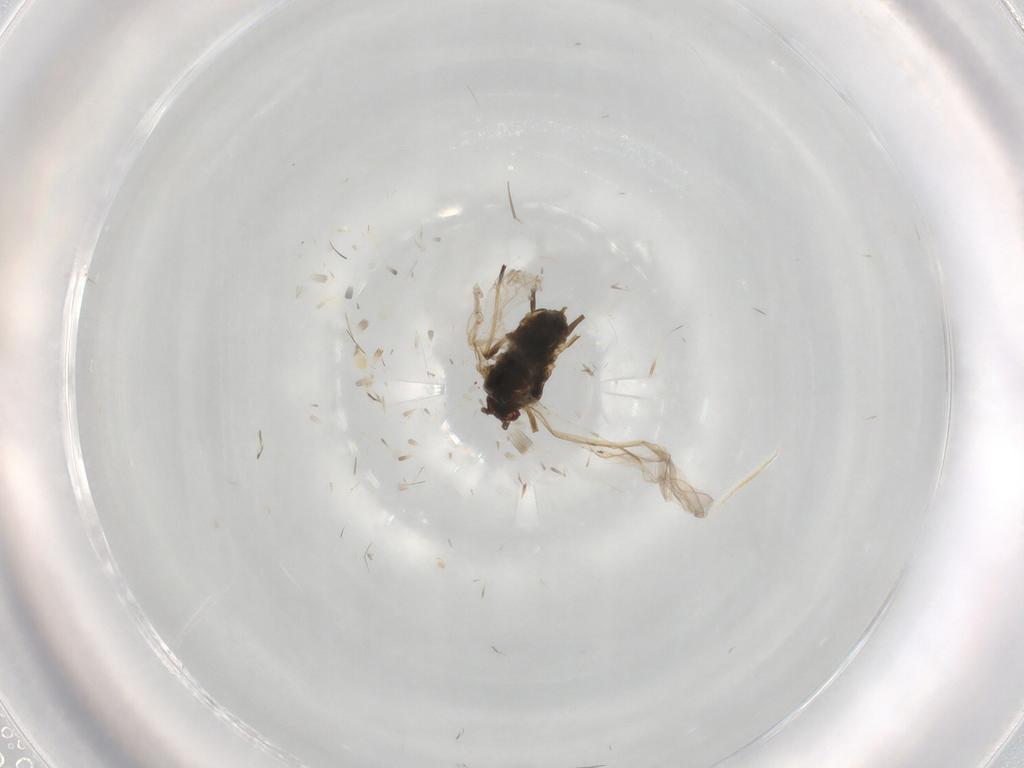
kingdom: Animalia
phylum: Arthropoda
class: Insecta
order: Hemiptera
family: Aphididae
